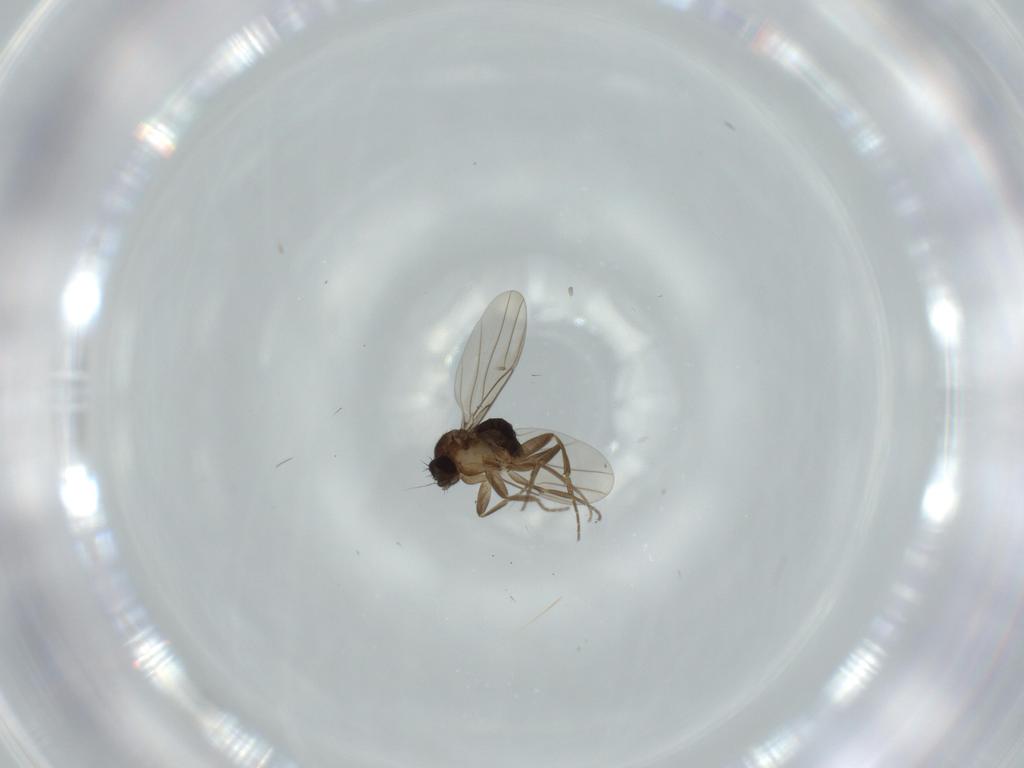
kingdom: Animalia
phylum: Arthropoda
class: Insecta
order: Diptera
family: Phoridae
